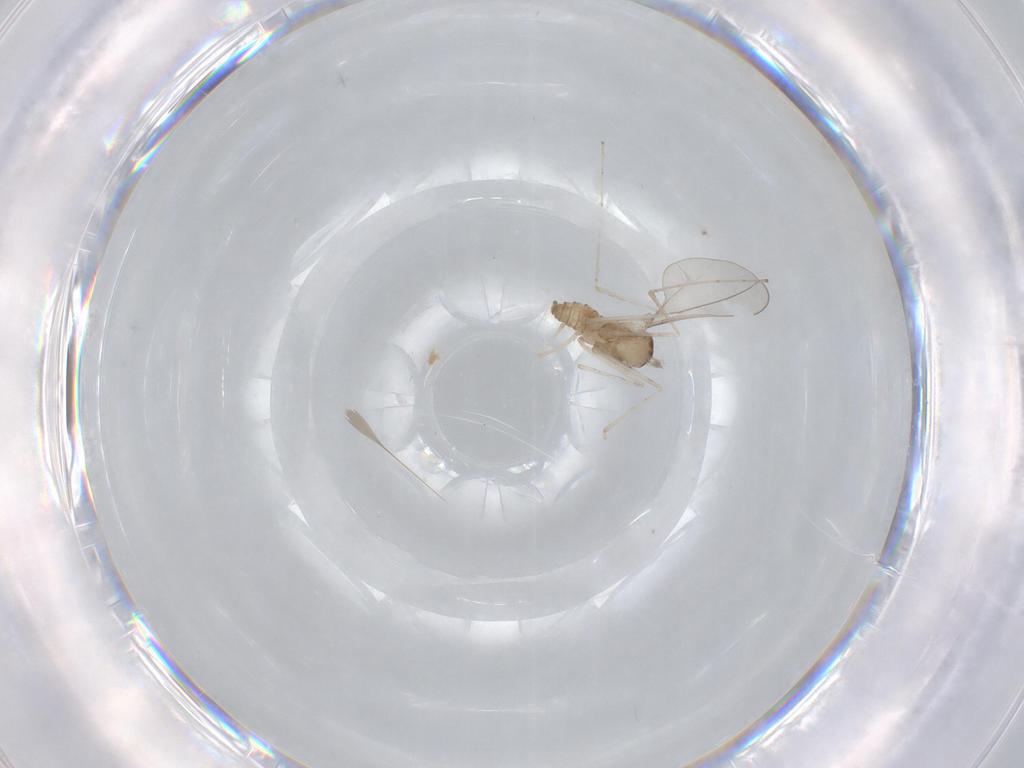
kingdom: Animalia
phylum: Arthropoda
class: Insecta
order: Diptera
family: Cecidomyiidae
